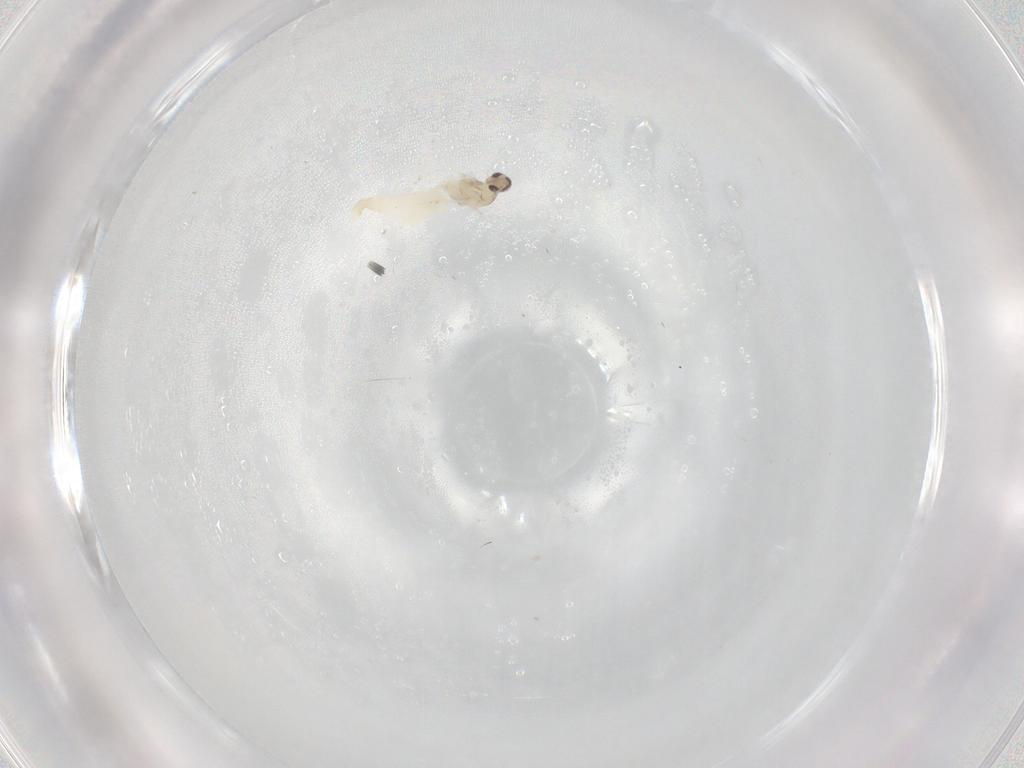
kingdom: Animalia
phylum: Arthropoda
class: Insecta
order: Diptera
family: Cecidomyiidae
